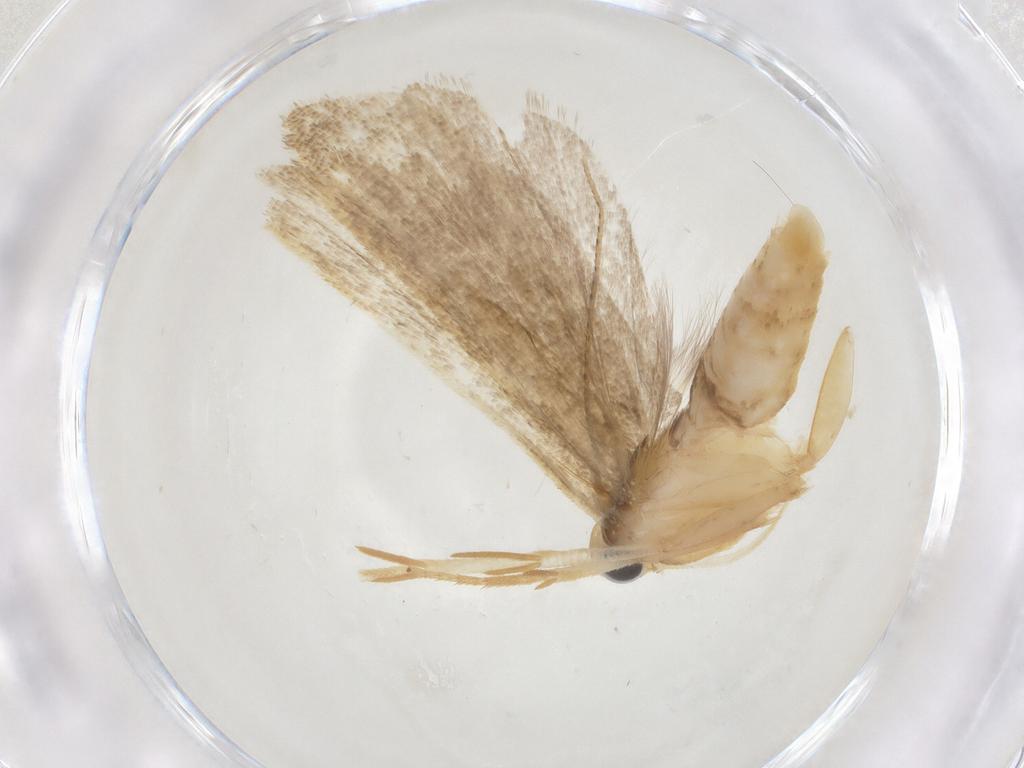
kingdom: Animalia
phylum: Arthropoda
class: Insecta
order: Lepidoptera
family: Gelechiidae
